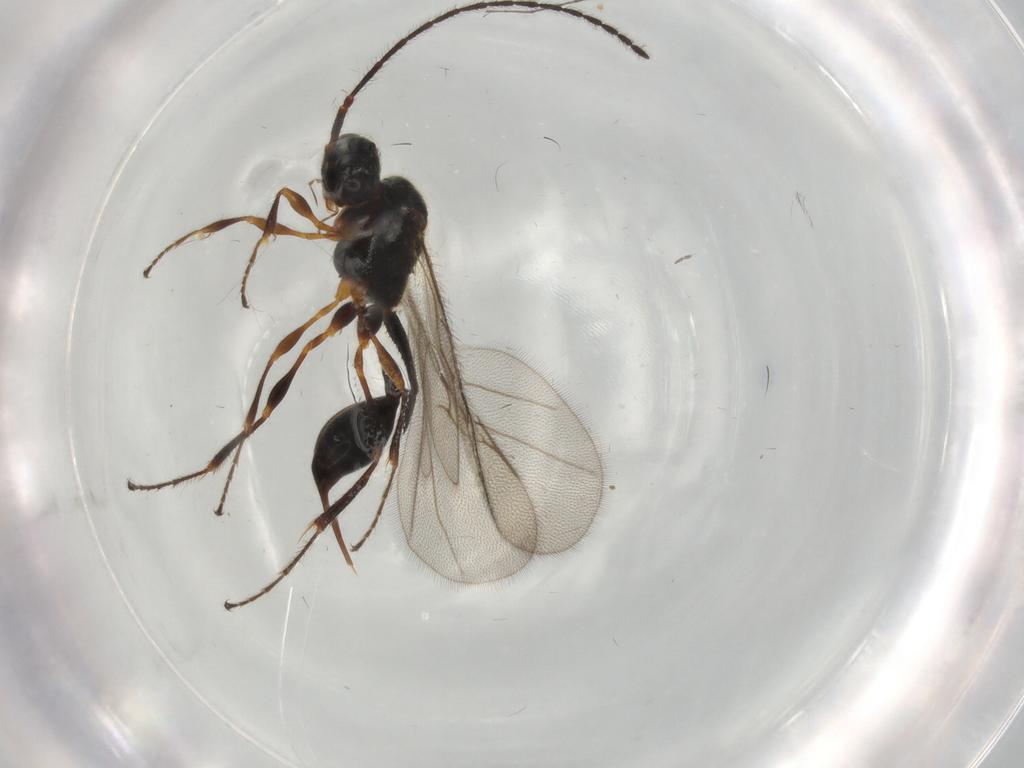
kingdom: Animalia
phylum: Arthropoda
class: Insecta
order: Hymenoptera
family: Diapriidae
